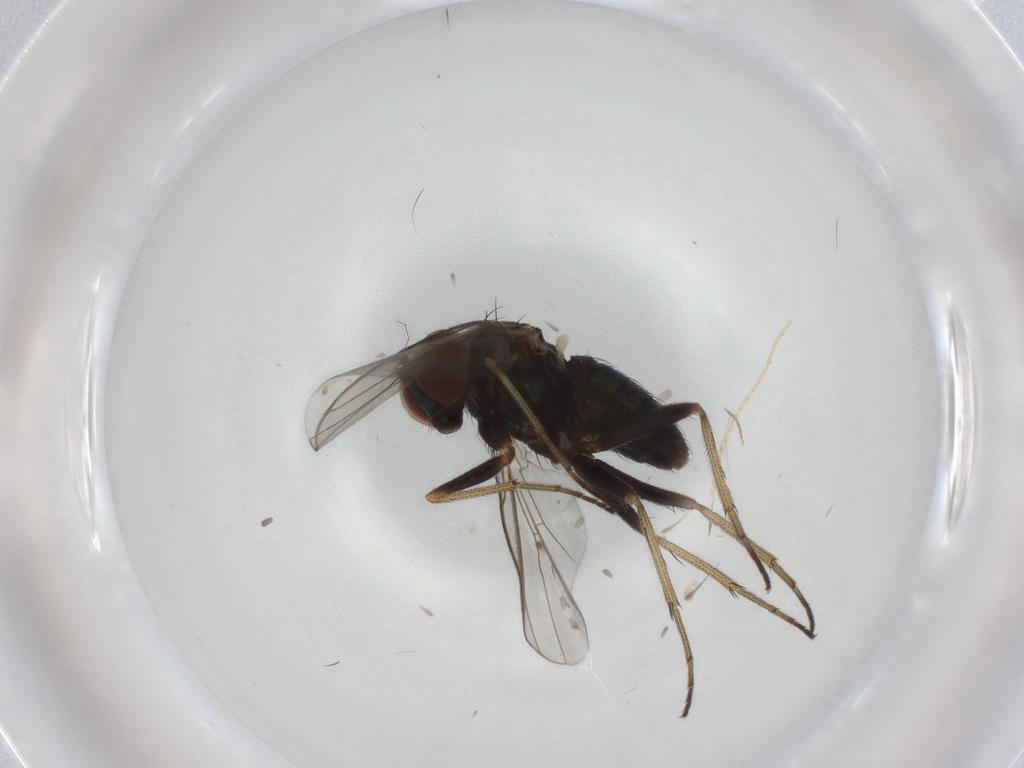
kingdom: Animalia
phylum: Arthropoda
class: Insecta
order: Diptera
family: Dolichopodidae
